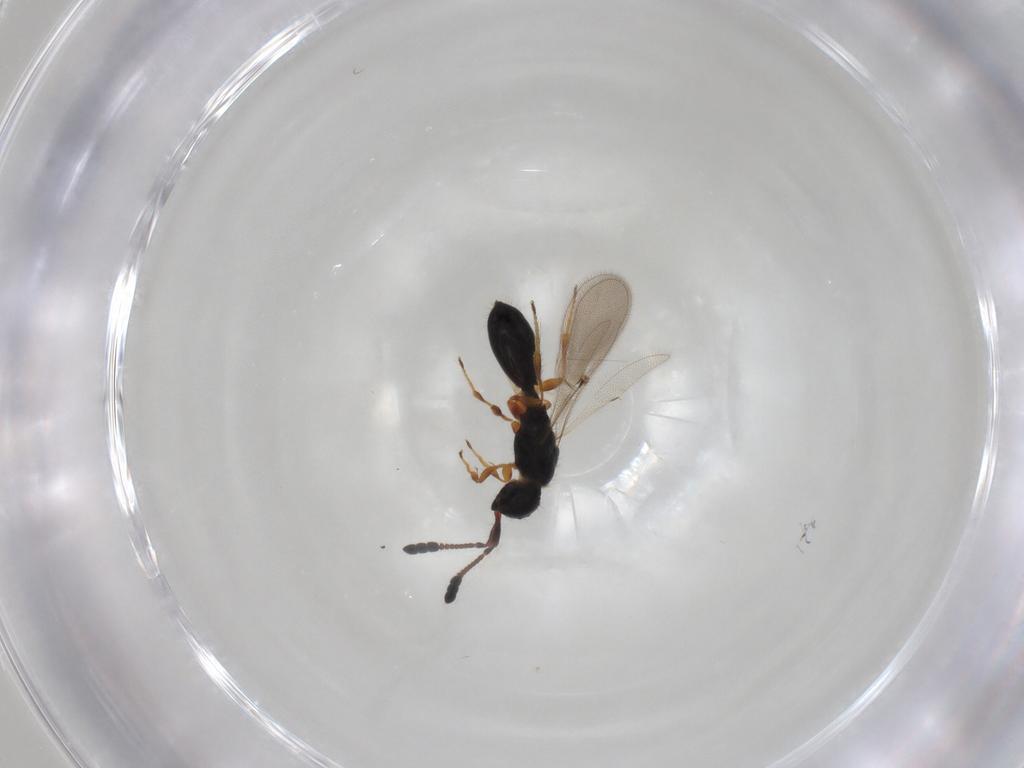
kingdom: Animalia
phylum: Arthropoda
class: Insecta
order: Hymenoptera
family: Diapriidae
